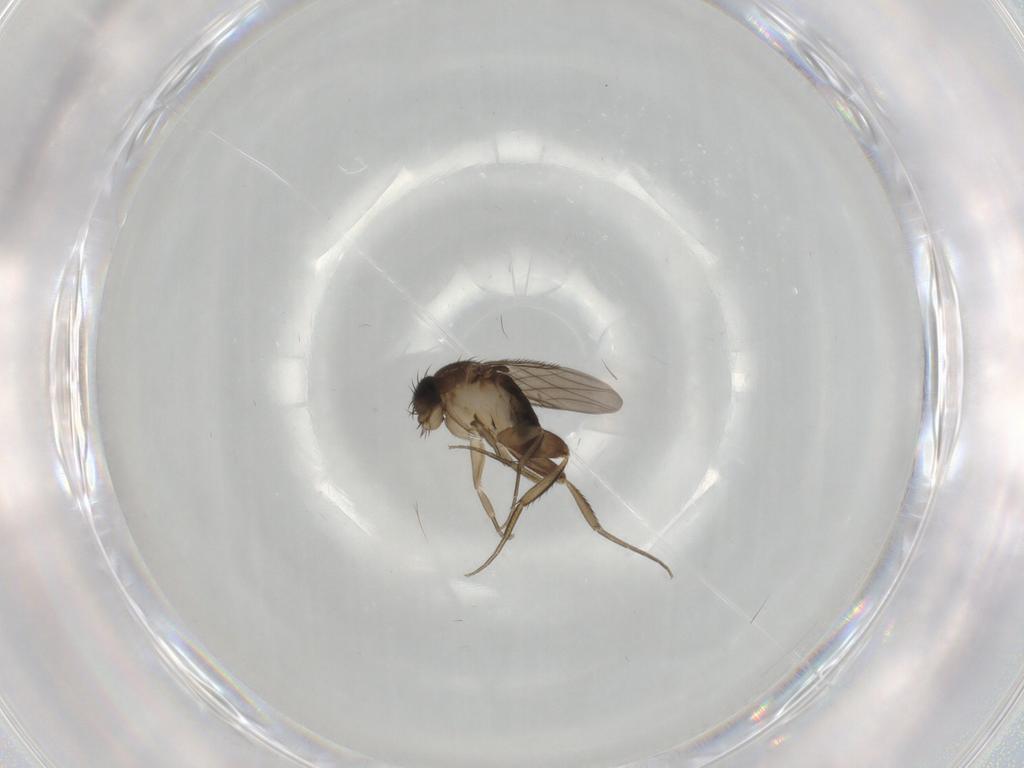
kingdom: Animalia
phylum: Arthropoda
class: Insecta
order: Diptera
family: Phoridae
